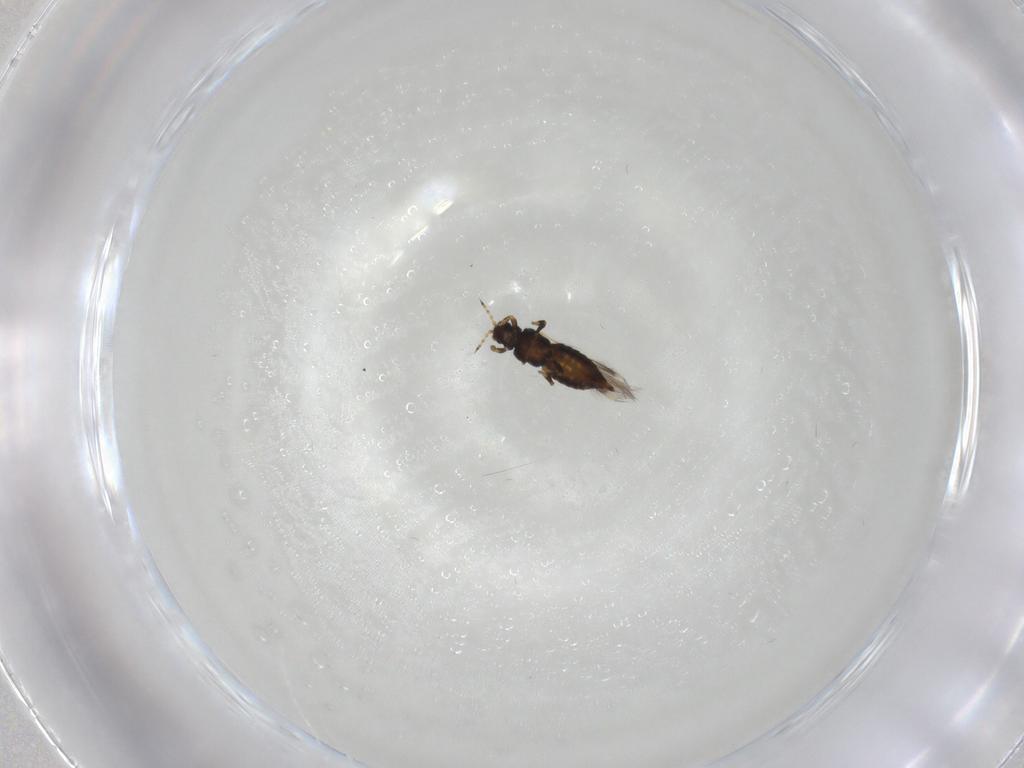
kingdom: Animalia
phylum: Arthropoda
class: Insecta
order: Thysanoptera
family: Thripidae
